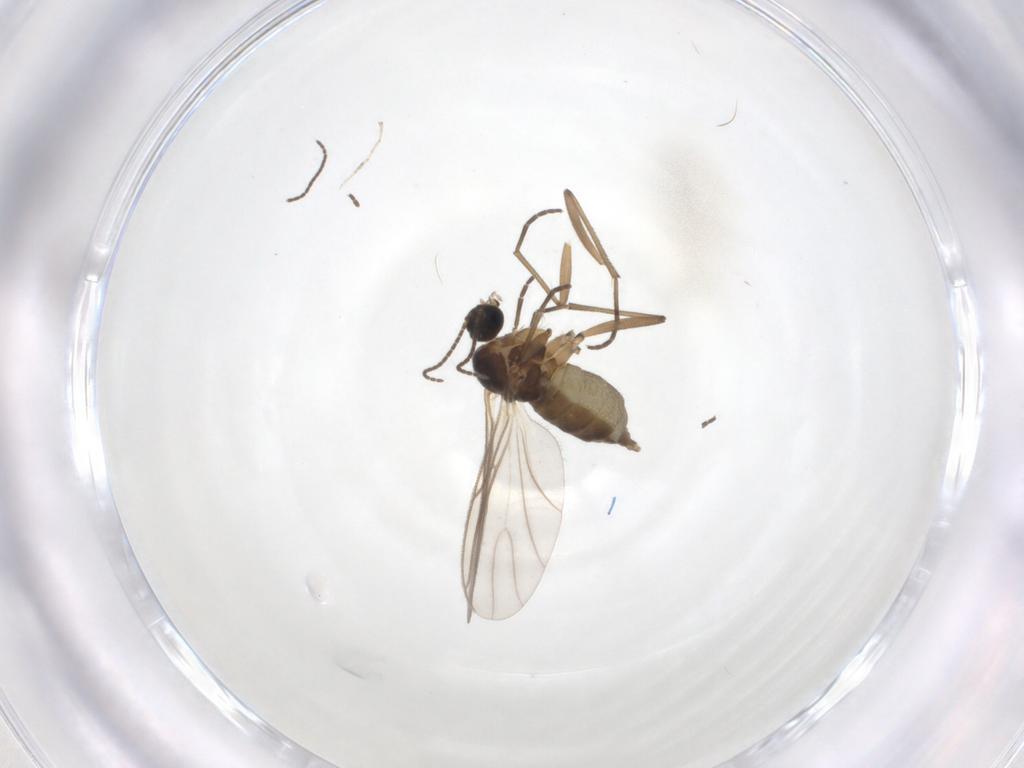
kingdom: Animalia
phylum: Arthropoda
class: Insecta
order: Diptera
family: Cecidomyiidae
